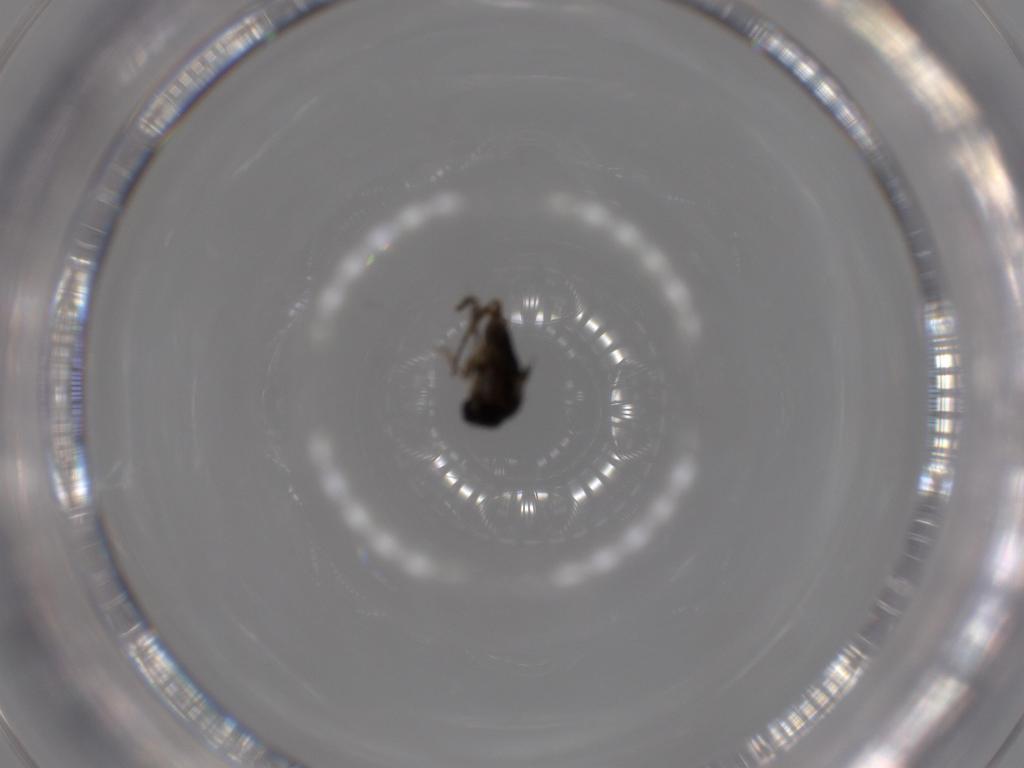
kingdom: Animalia
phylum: Arthropoda
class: Insecta
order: Diptera
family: Phoridae
